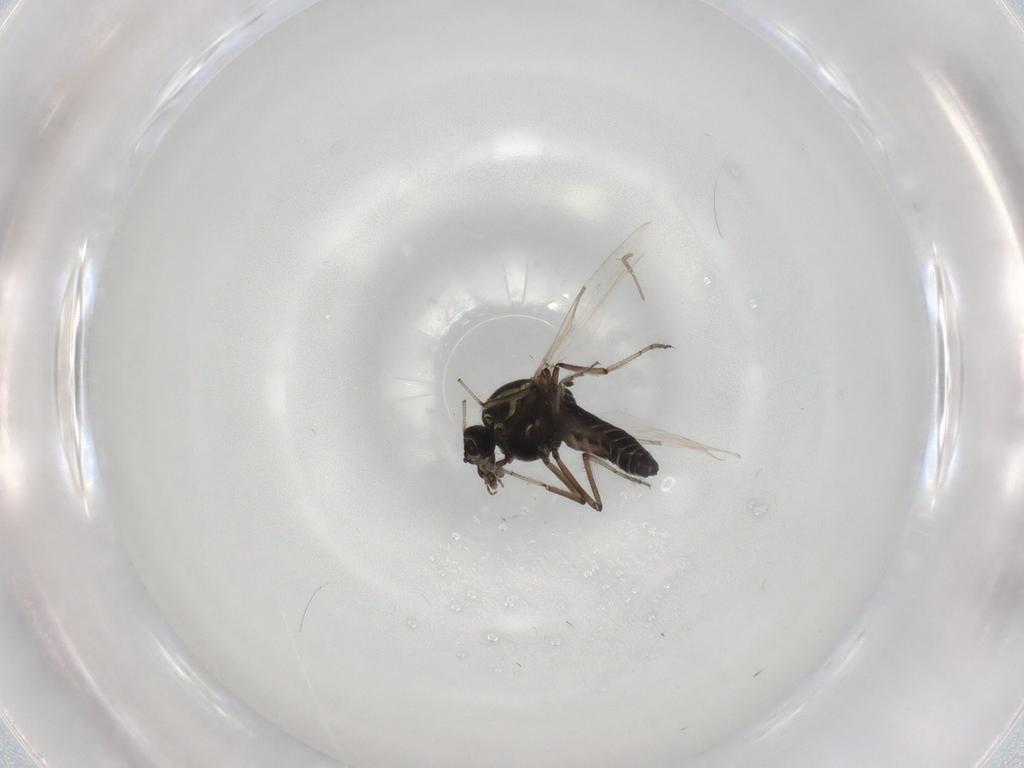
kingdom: Animalia
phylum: Arthropoda
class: Insecta
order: Diptera
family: Ceratopogonidae
